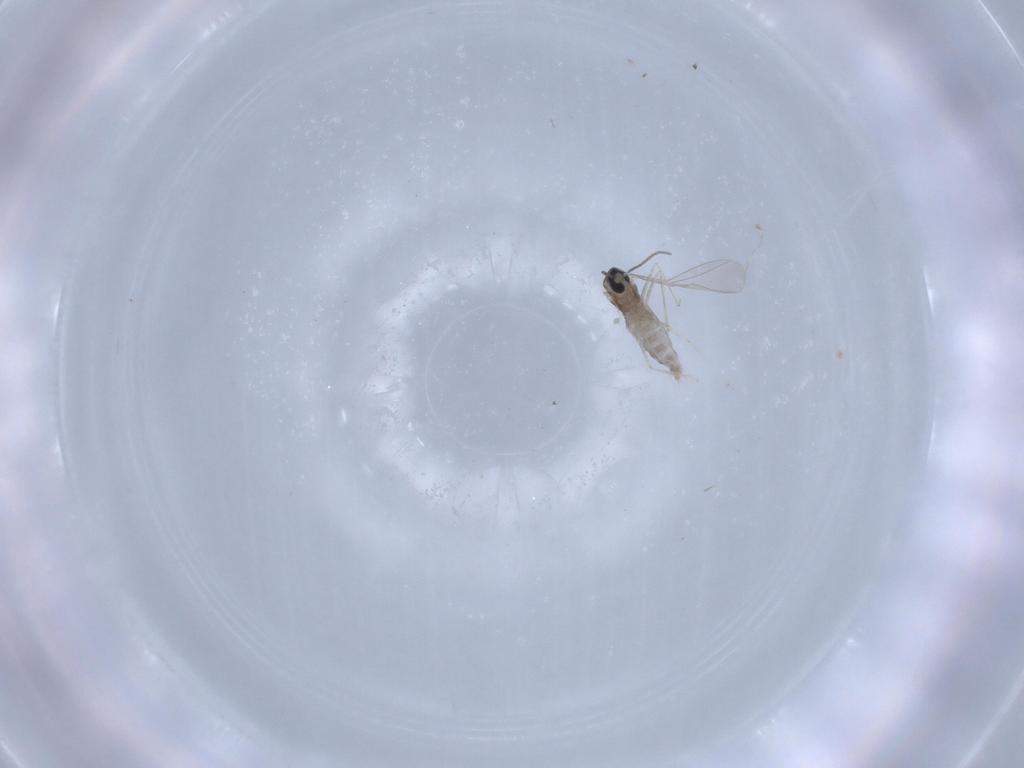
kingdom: Animalia
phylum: Arthropoda
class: Insecta
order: Diptera
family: Cecidomyiidae
